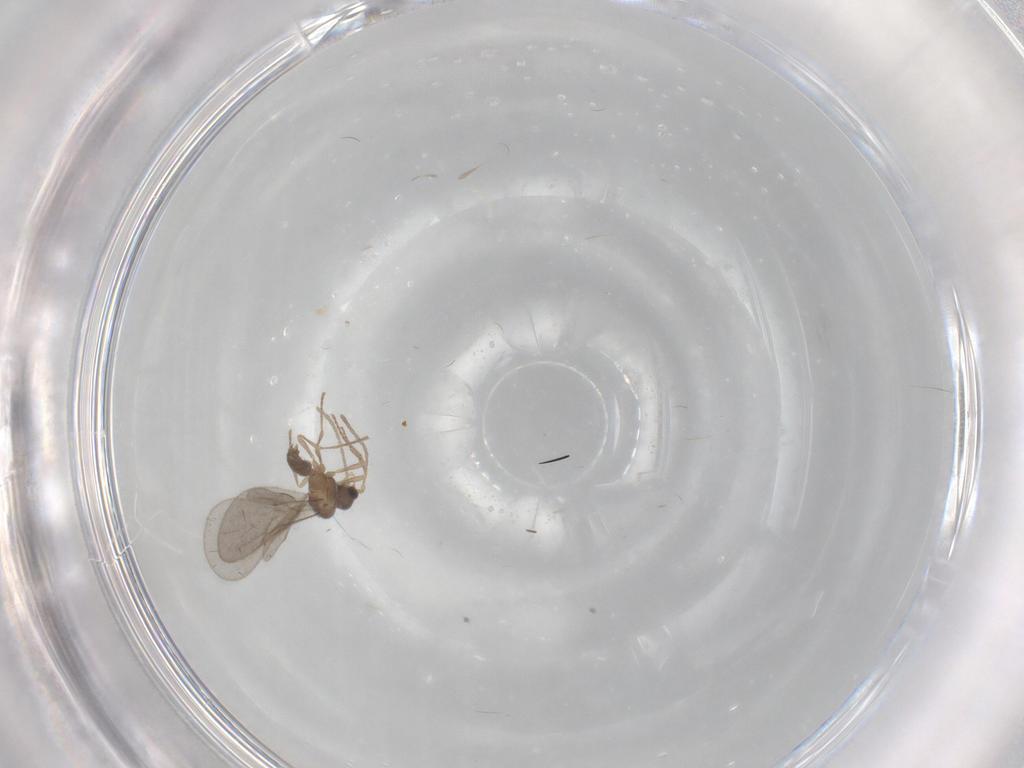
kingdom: Animalia
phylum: Arthropoda
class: Insecta
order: Hymenoptera
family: Formicidae
